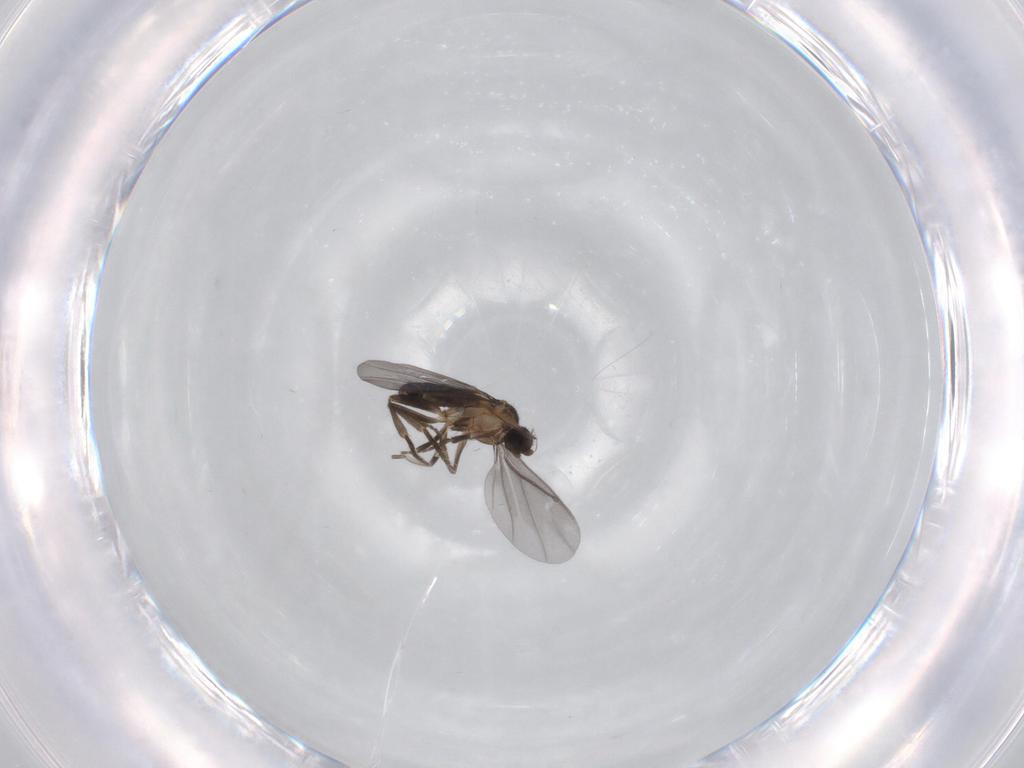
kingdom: Animalia
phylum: Arthropoda
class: Insecta
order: Diptera
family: Phoridae
